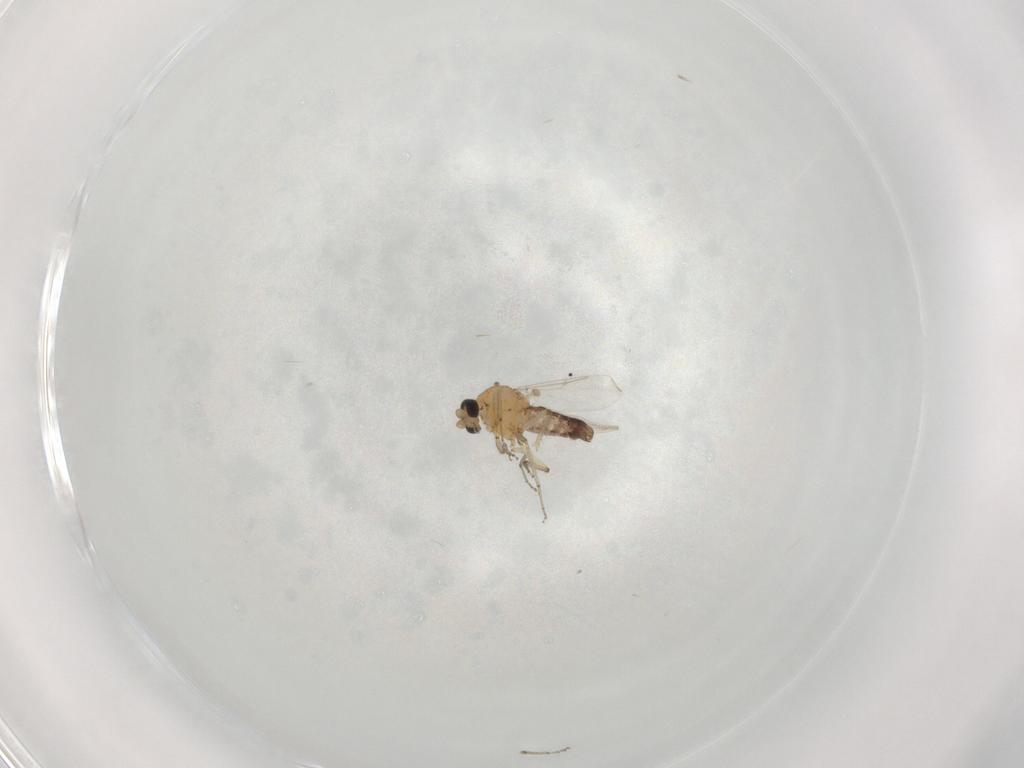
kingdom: Animalia
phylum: Arthropoda
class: Insecta
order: Diptera
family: Ceratopogonidae
